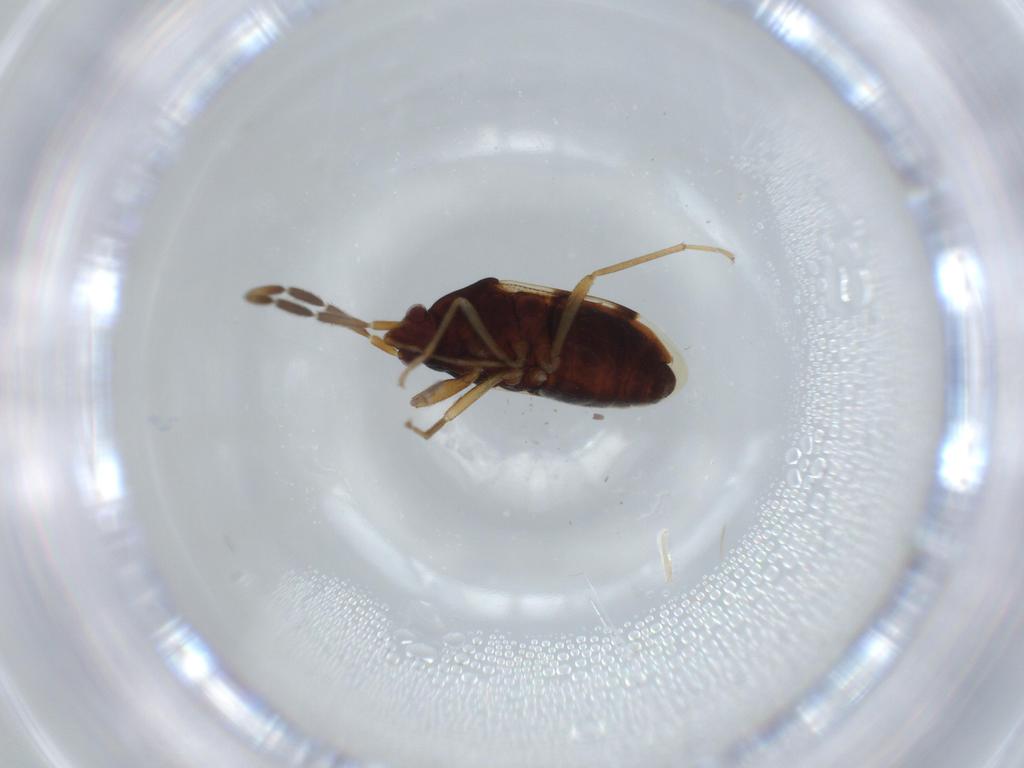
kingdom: Animalia
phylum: Arthropoda
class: Insecta
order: Hemiptera
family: Rhyparochromidae
